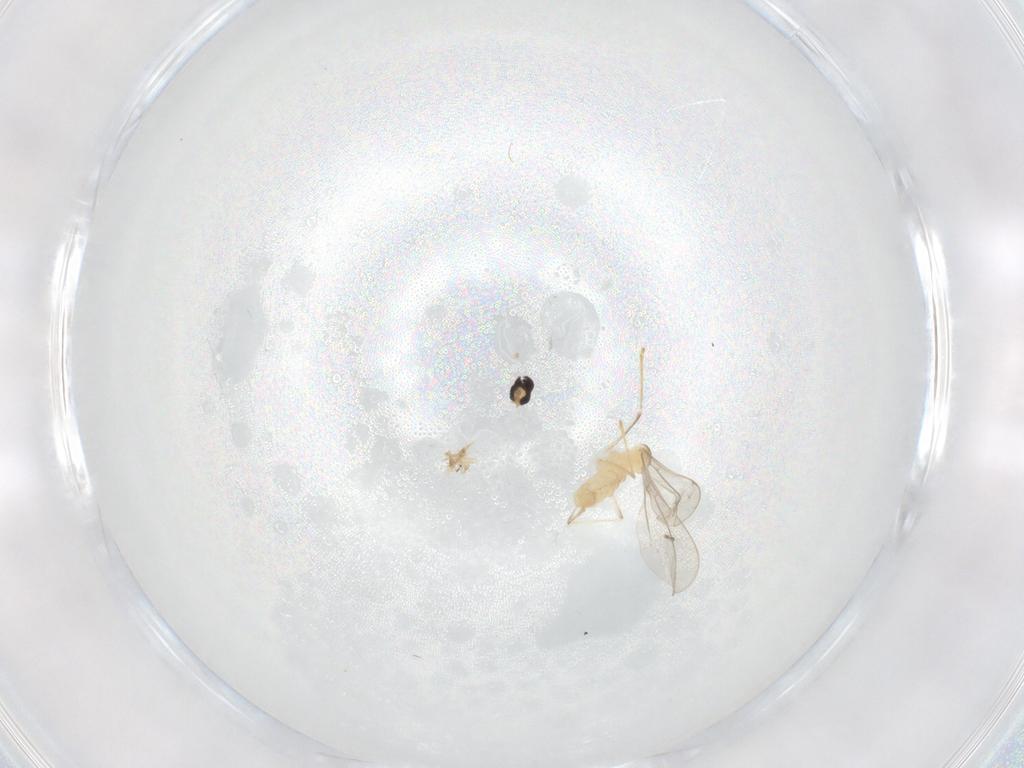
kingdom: Animalia
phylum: Arthropoda
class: Insecta
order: Diptera
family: Cecidomyiidae
